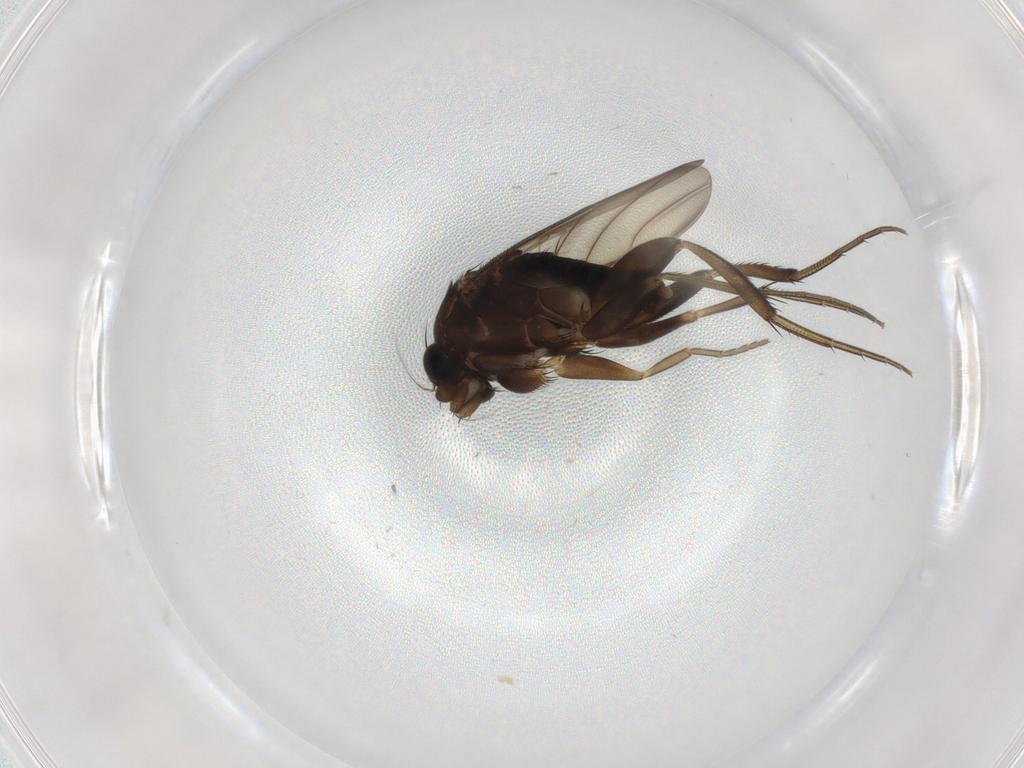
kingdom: Animalia
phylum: Arthropoda
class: Insecta
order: Diptera
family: Phoridae
